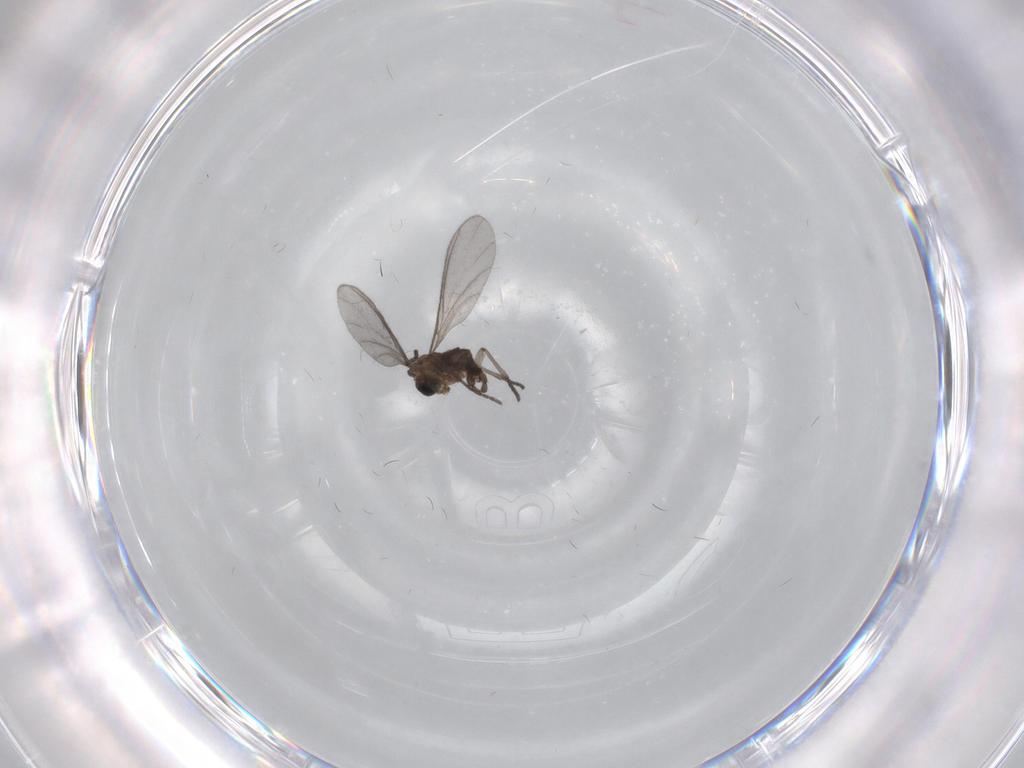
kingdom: Animalia
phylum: Arthropoda
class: Insecta
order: Diptera
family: Sciaridae
